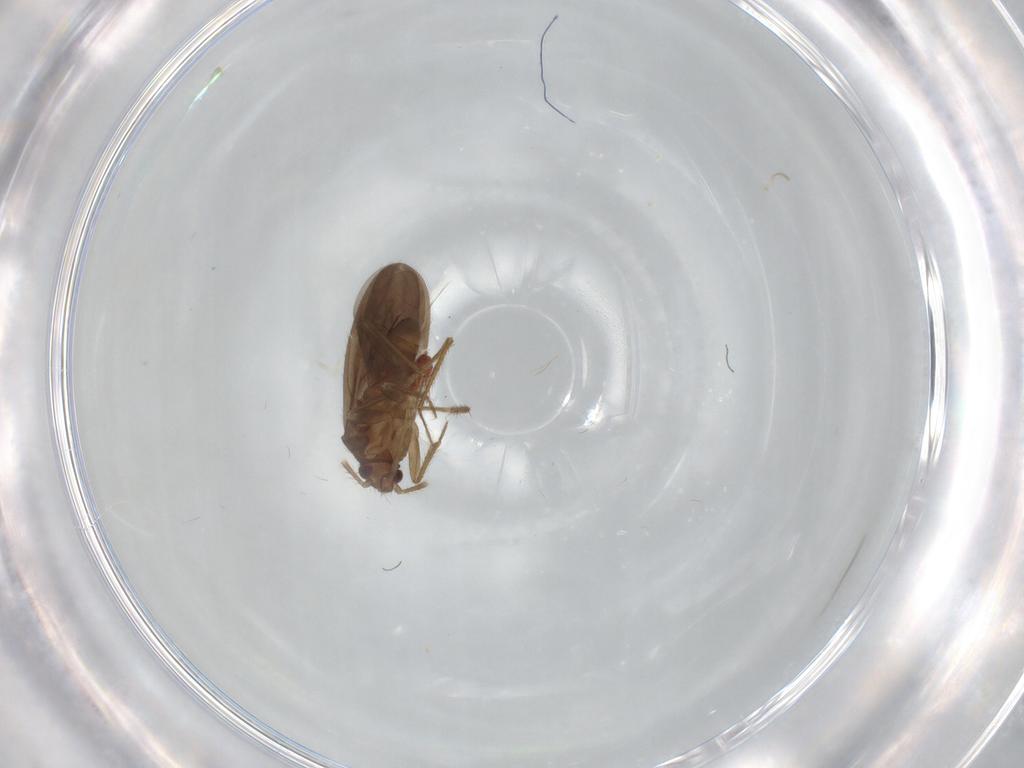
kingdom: Animalia
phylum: Arthropoda
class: Insecta
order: Hemiptera
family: Ceratocombidae
